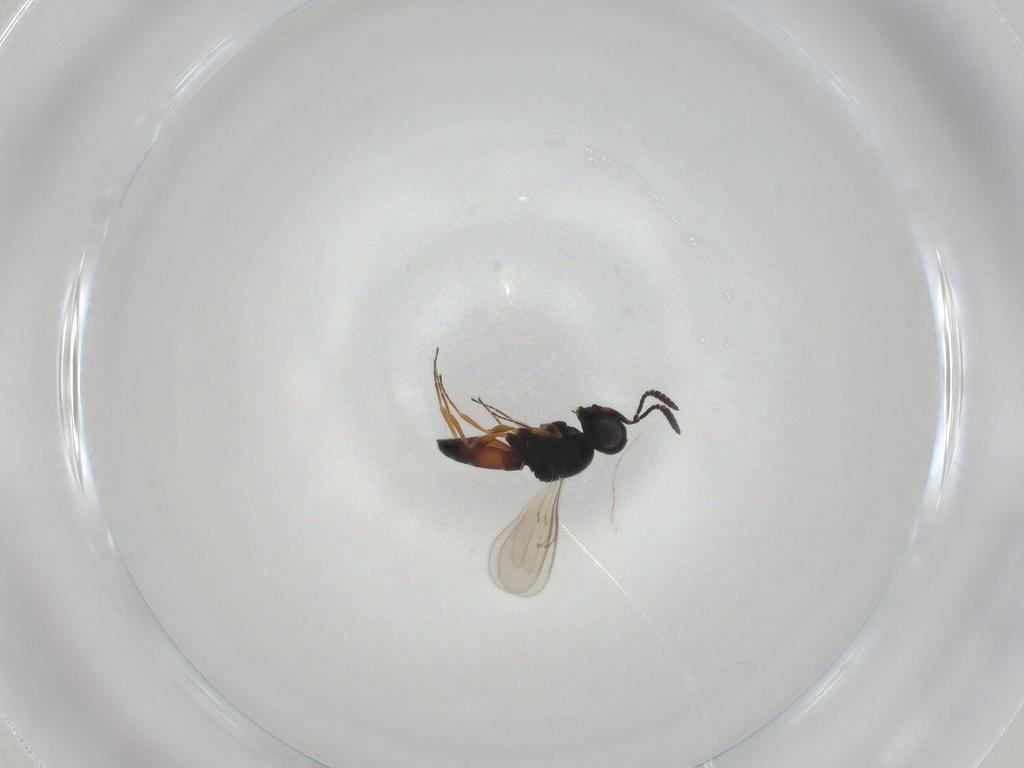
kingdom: Animalia
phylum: Arthropoda
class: Insecta
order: Hymenoptera
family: Scelionidae
